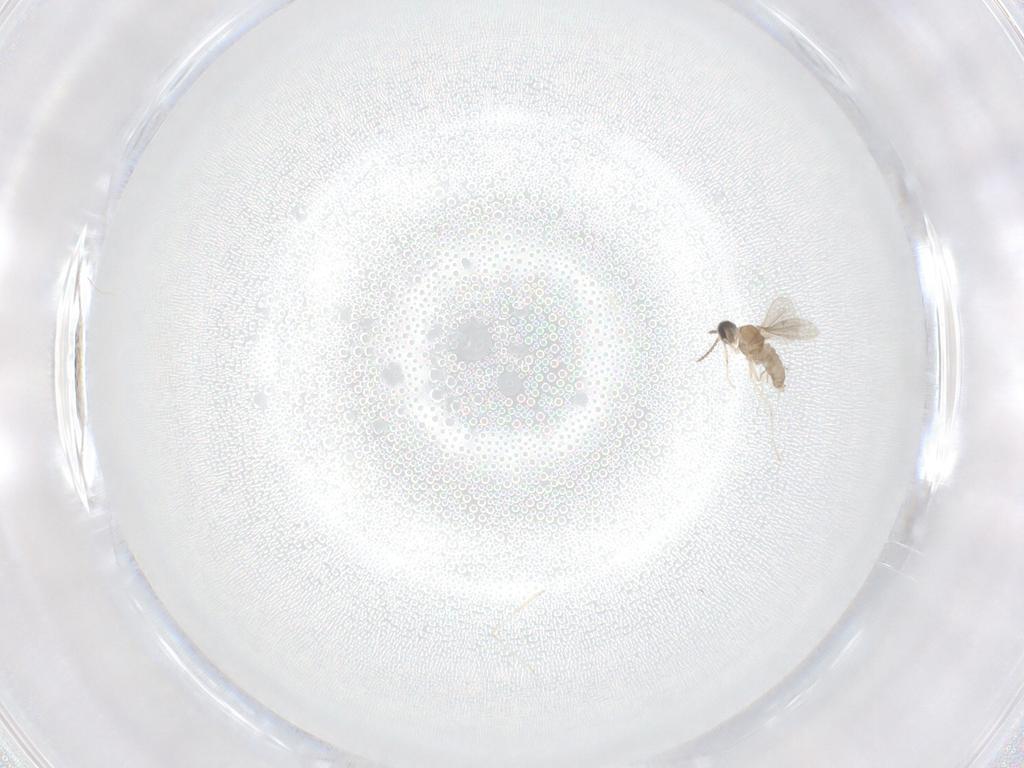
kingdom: Animalia
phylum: Arthropoda
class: Insecta
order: Diptera
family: Cecidomyiidae
